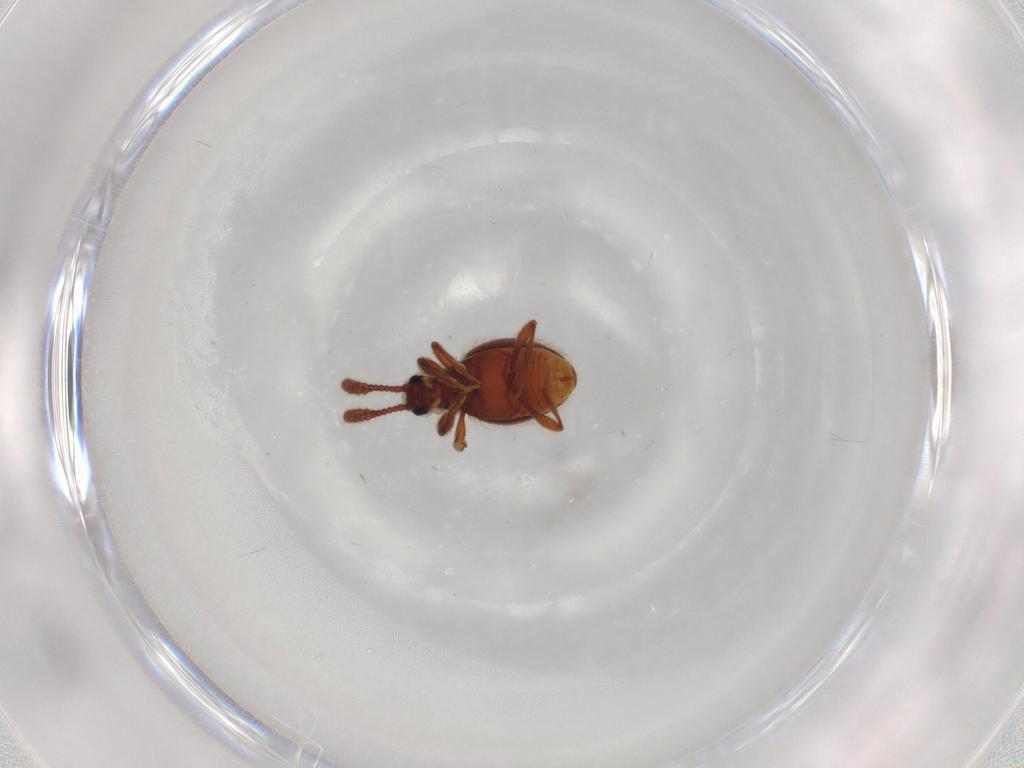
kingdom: Animalia
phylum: Arthropoda
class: Insecta
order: Coleoptera
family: Staphylinidae
